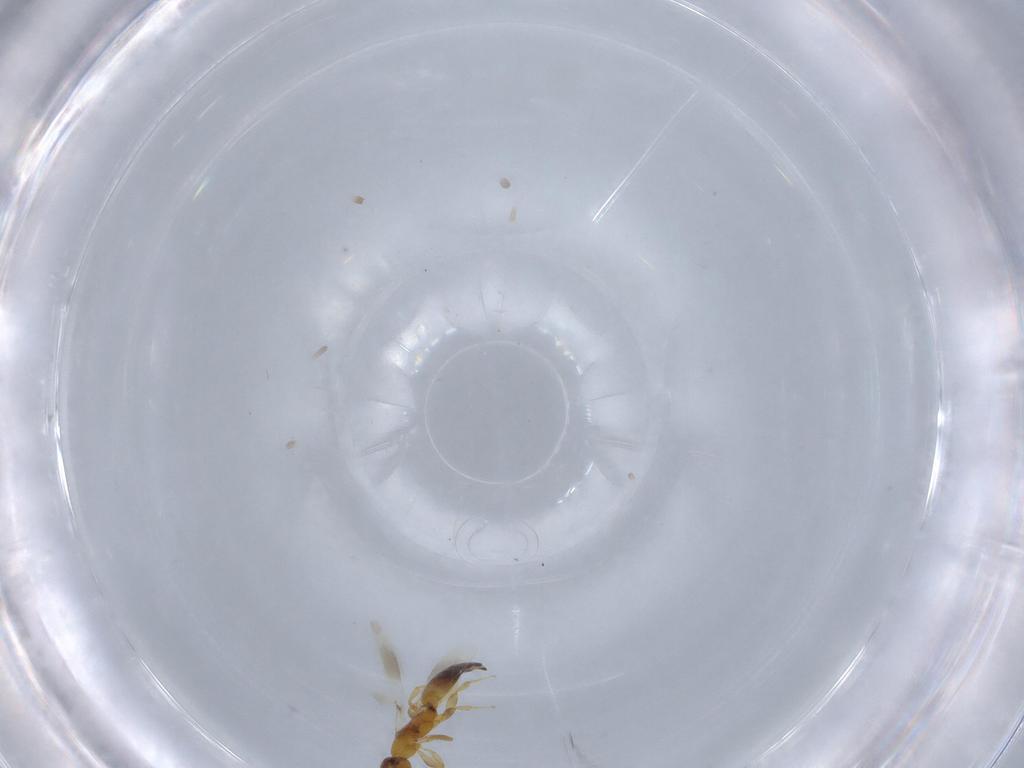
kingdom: Animalia
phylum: Arthropoda
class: Insecta
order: Hymenoptera
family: Bethylidae
